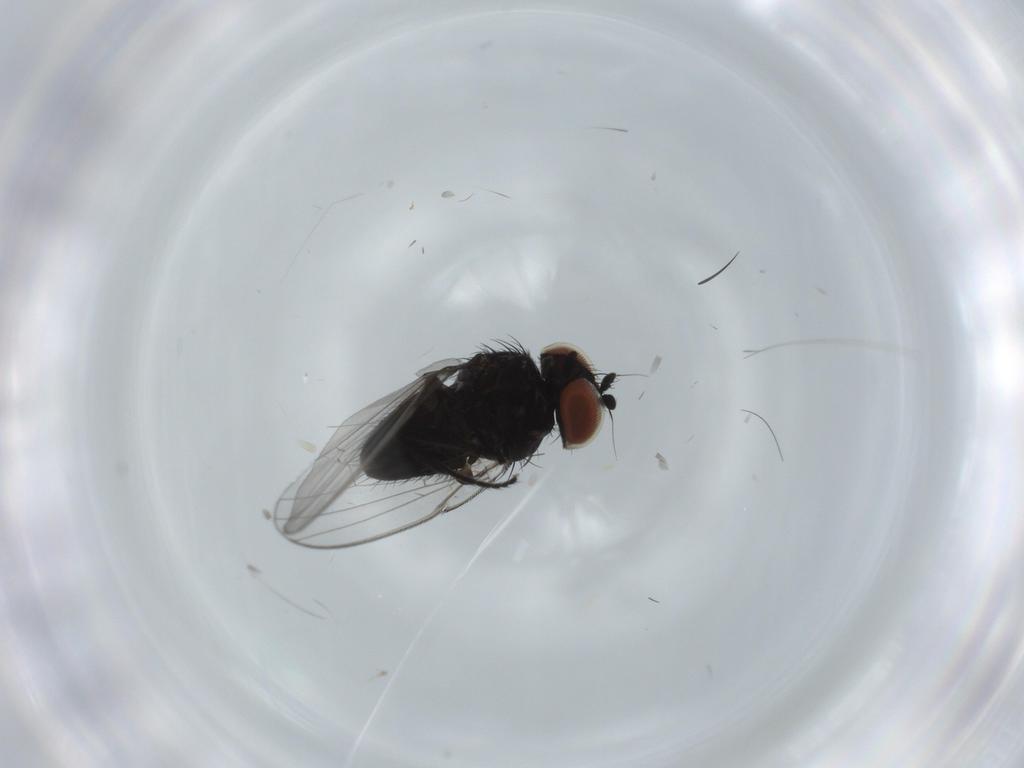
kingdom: Animalia
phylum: Arthropoda
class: Insecta
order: Diptera
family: Milichiidae
